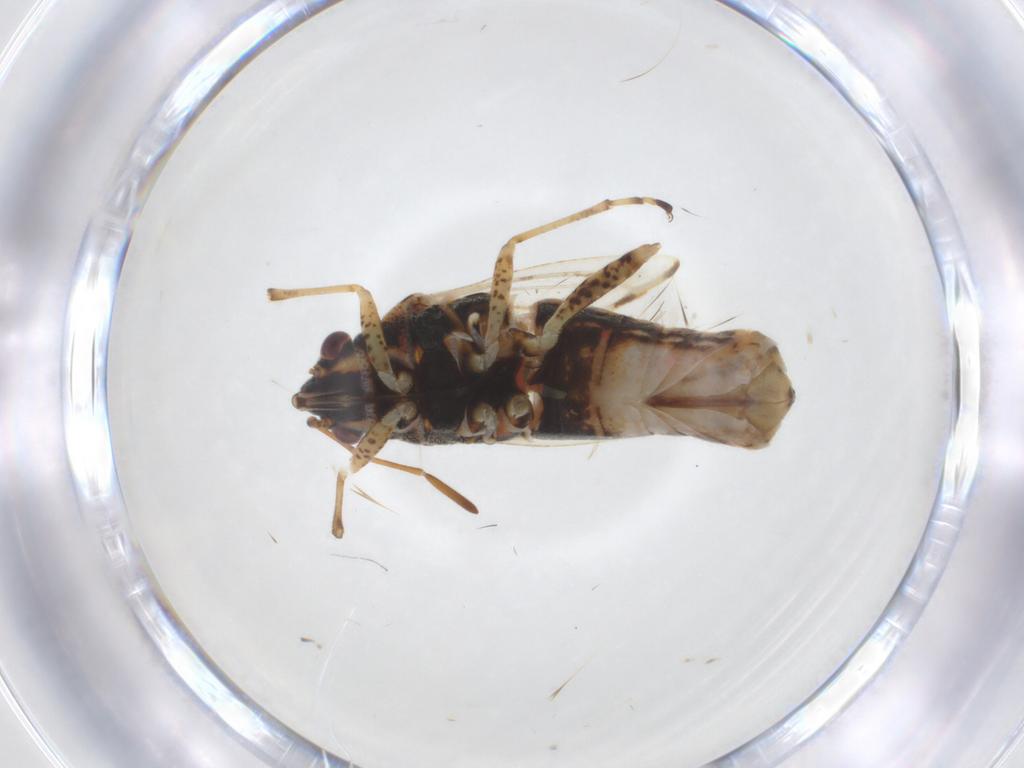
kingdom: Animalia
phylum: Arthropoda
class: Insecta
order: Hemiptera
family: Lygaeidae
